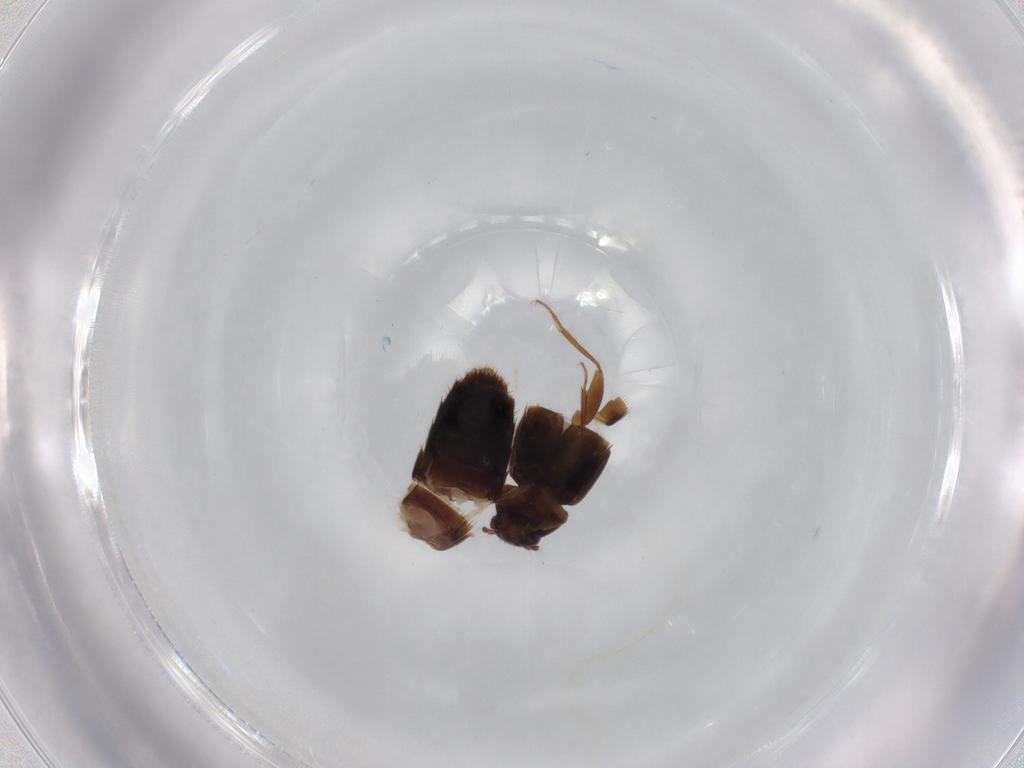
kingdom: Animalia
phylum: Arthropoda
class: Insecta
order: Coleoptera
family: Staphylinidae
